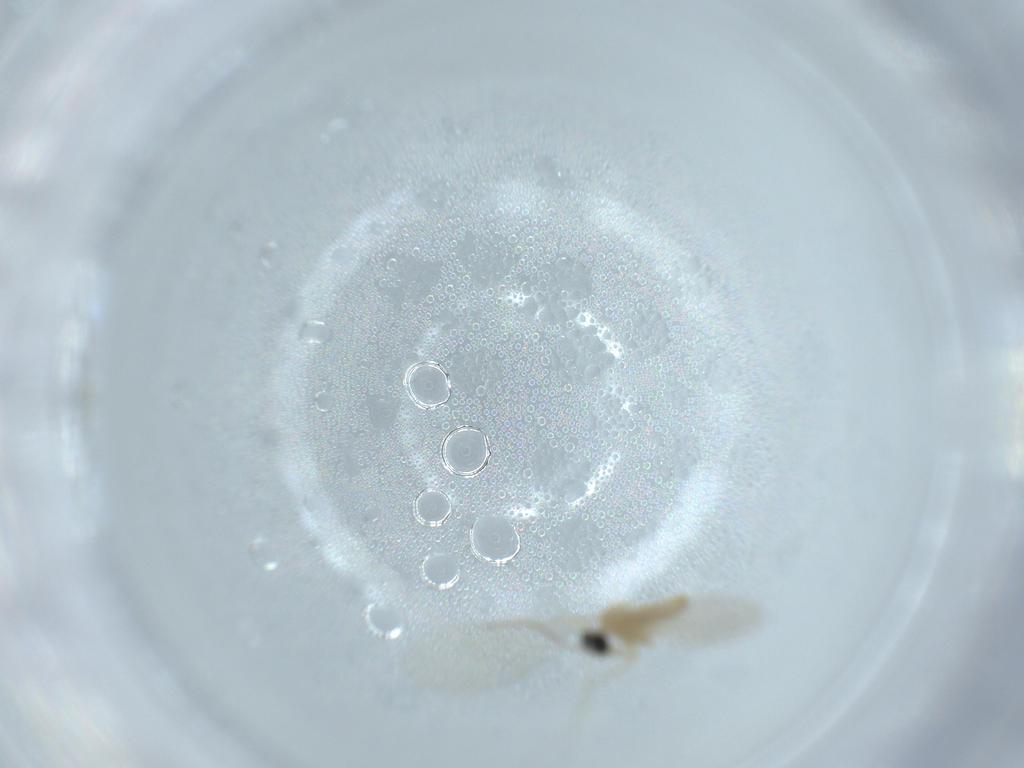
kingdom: Animalia
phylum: Arthropoda
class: Insecta
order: Diptera
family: Cecidomyiidae
